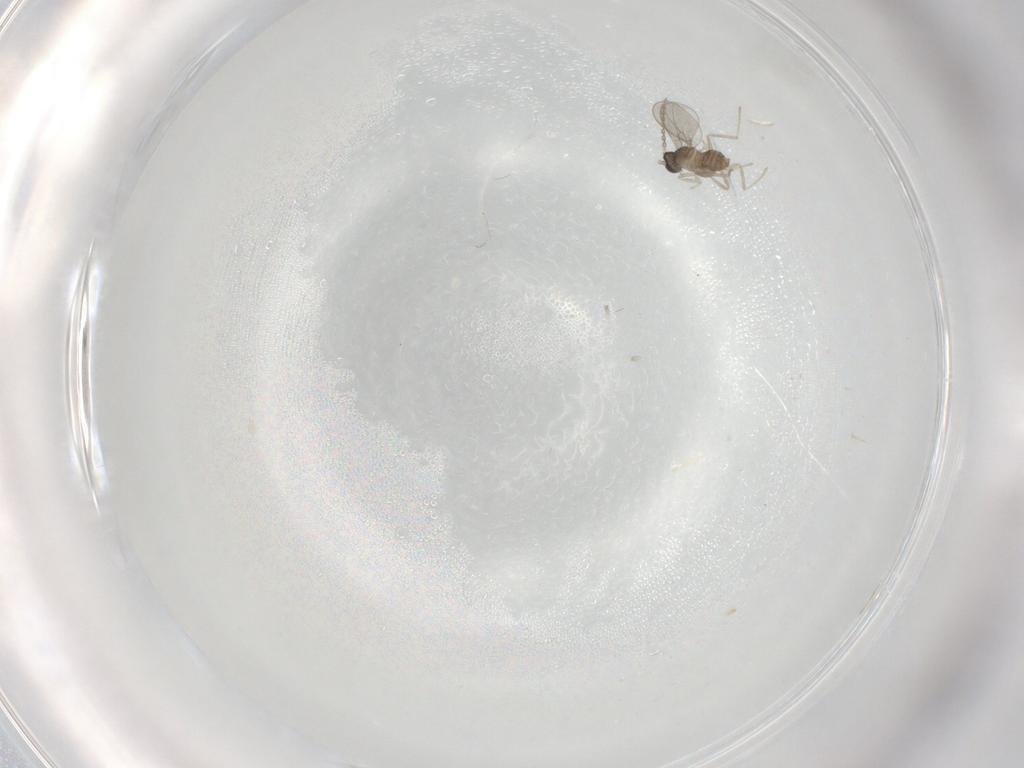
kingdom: Animalia
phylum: Arthropoda
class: Insecta
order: Diptera
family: Cecidomyiidae
